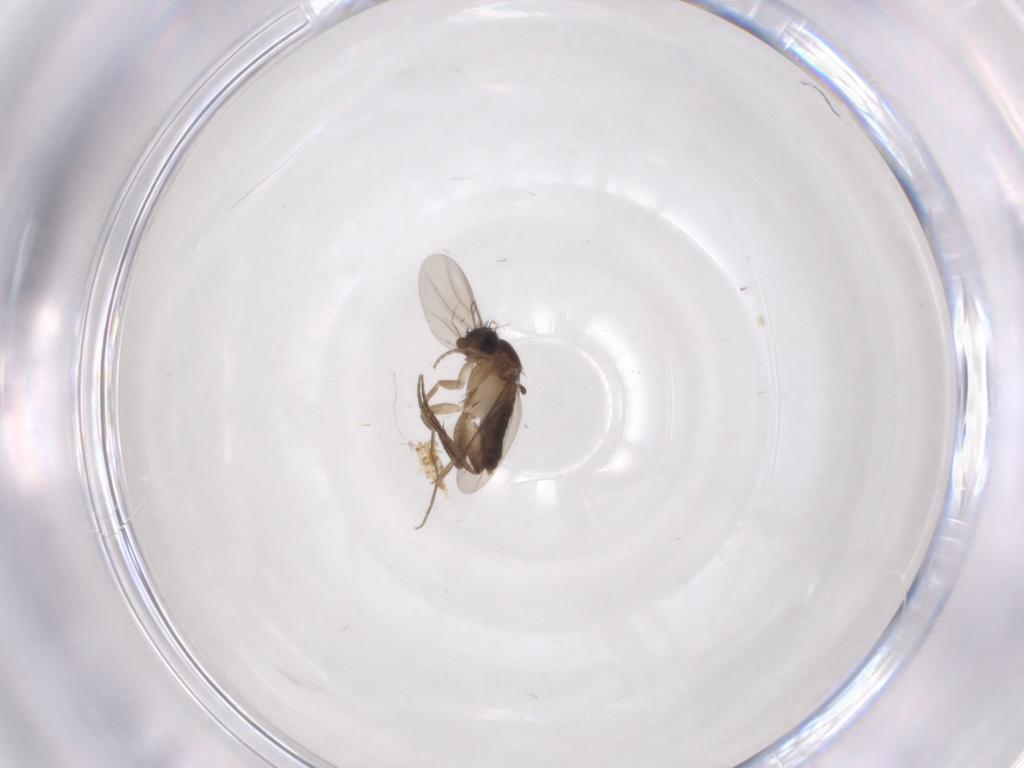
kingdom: Animalia
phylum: Arthropoda
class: Insecta
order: Diptera
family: Phoridae
